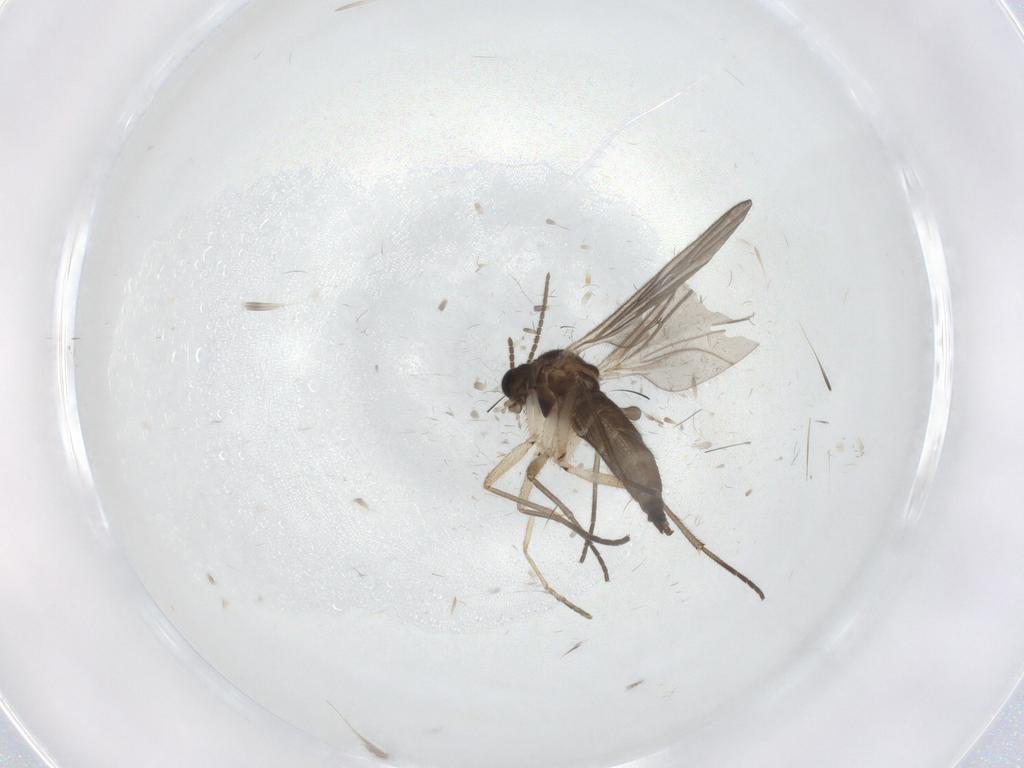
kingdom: Animalia
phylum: Arthropoda
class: Insecta
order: Diptera
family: Sciaridae
